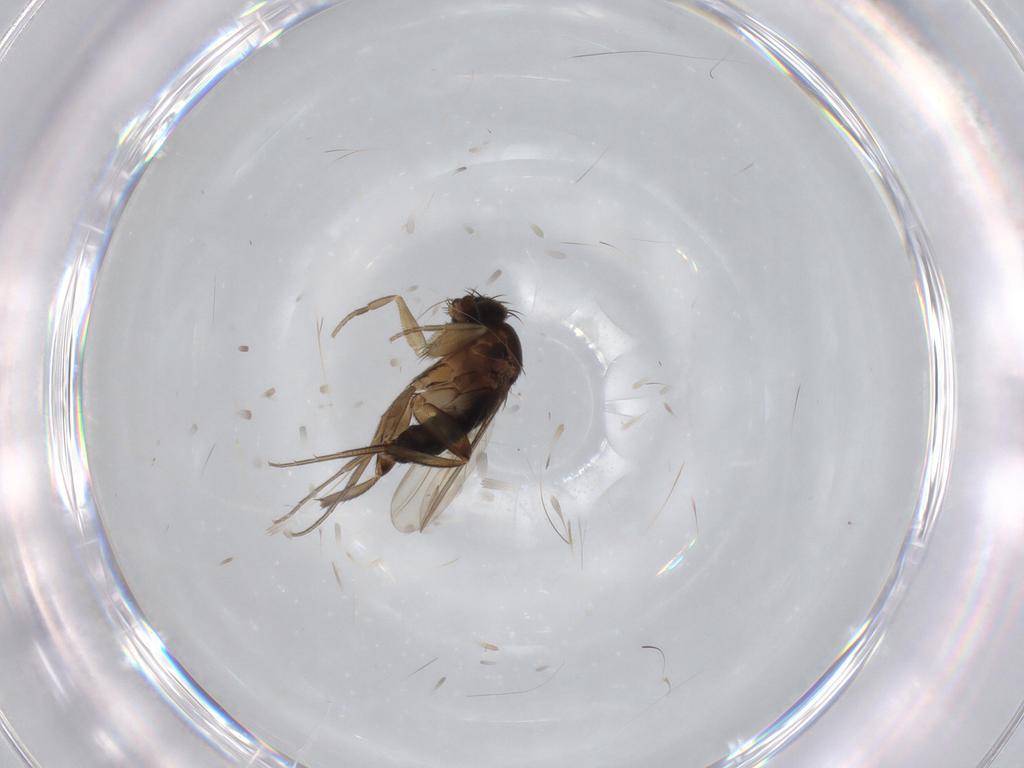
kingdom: Animalia
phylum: Arthropoda
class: Insecta
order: Diptera
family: Phoridae
